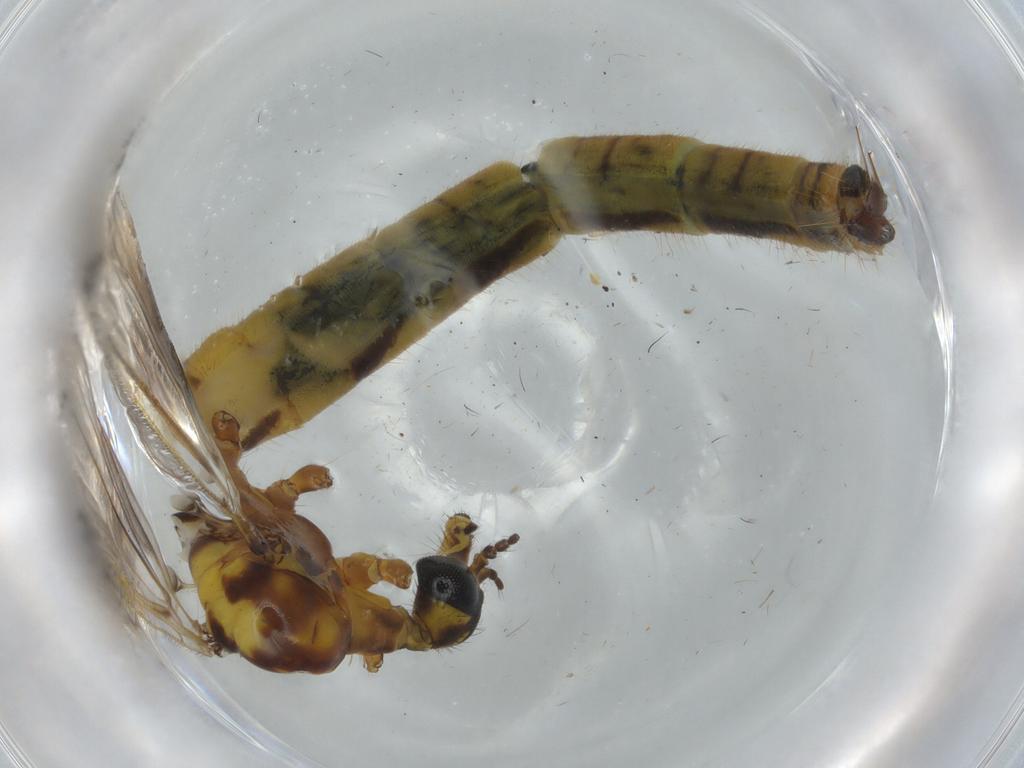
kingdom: Animalia
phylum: Arthropoda
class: Insecta
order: Diptera
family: Limoniidae
